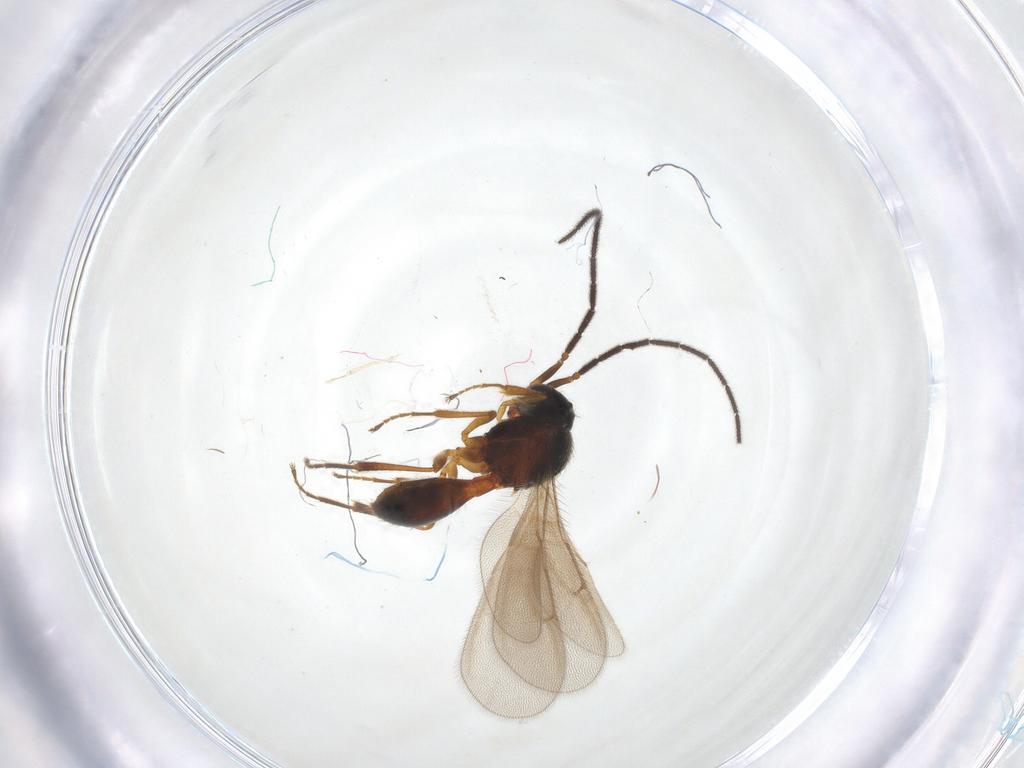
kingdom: Animalia
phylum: Arthropoda
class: Insecta
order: Hymenoptera
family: Scelionidae
